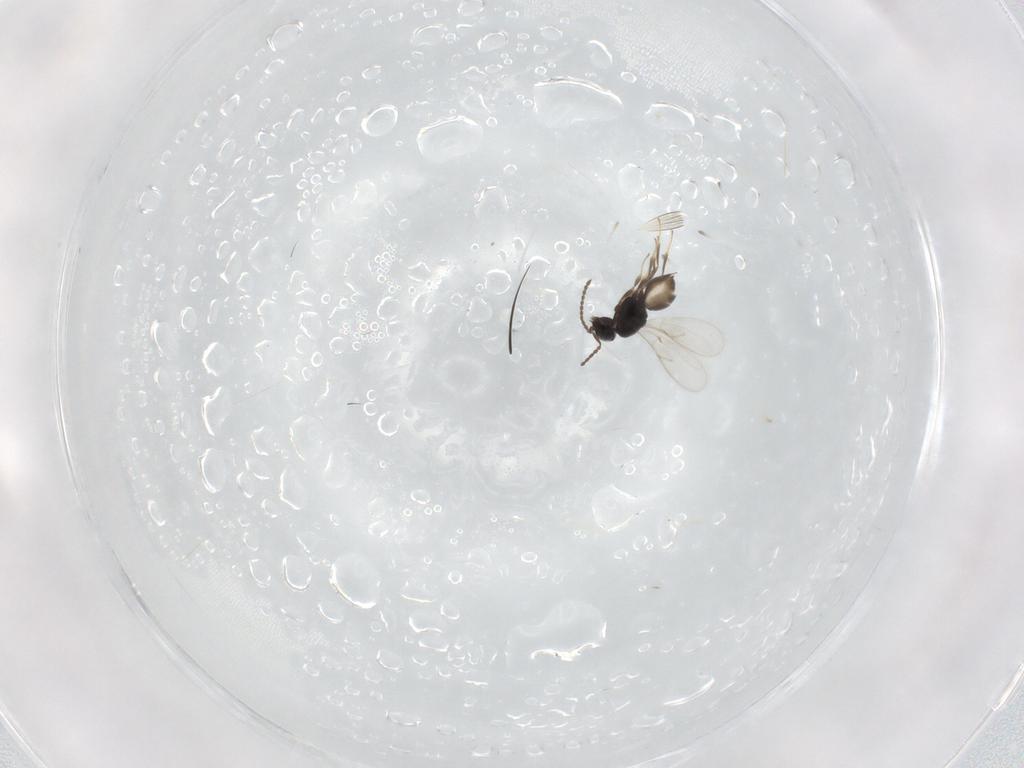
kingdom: Animalia
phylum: Arthropoda
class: Insecta
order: Hymenoptera
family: Scelionidae
